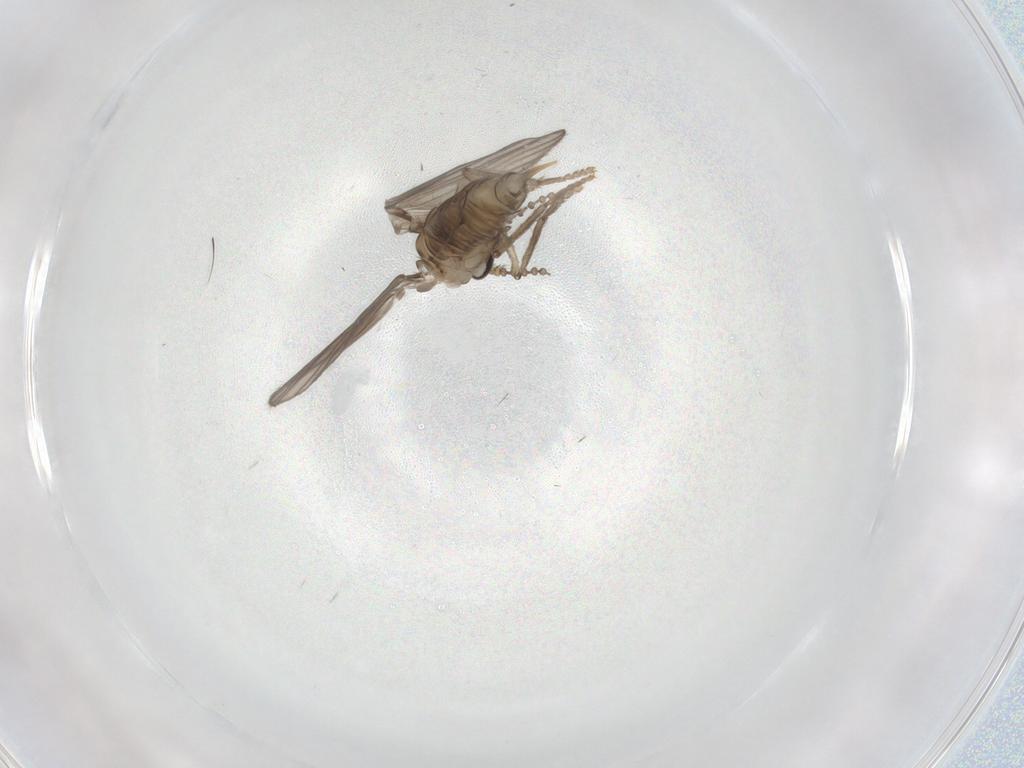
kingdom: Animalia
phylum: Arthropoda
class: Insecta
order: Diptera
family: Psychodidae
